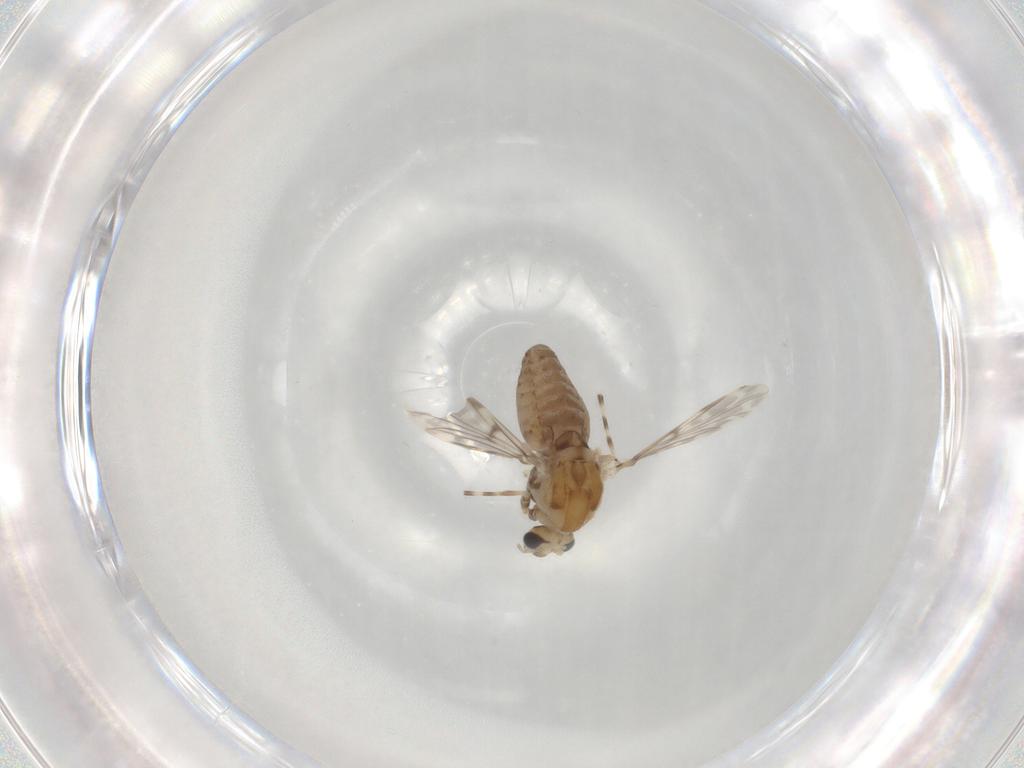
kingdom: Animalia
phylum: Arthropoda
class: Insecta
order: Diptera
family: Chironomidae
